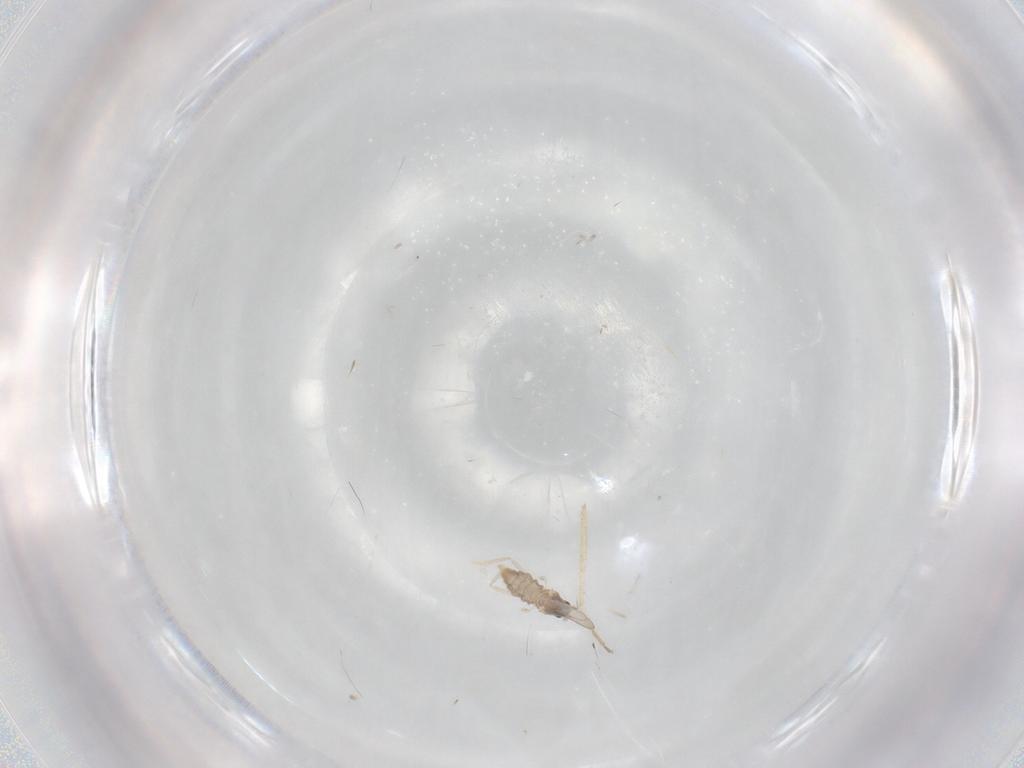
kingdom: Animalia
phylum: Arthropoda
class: Insecta
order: Diptera
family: Cecidomyiidae
